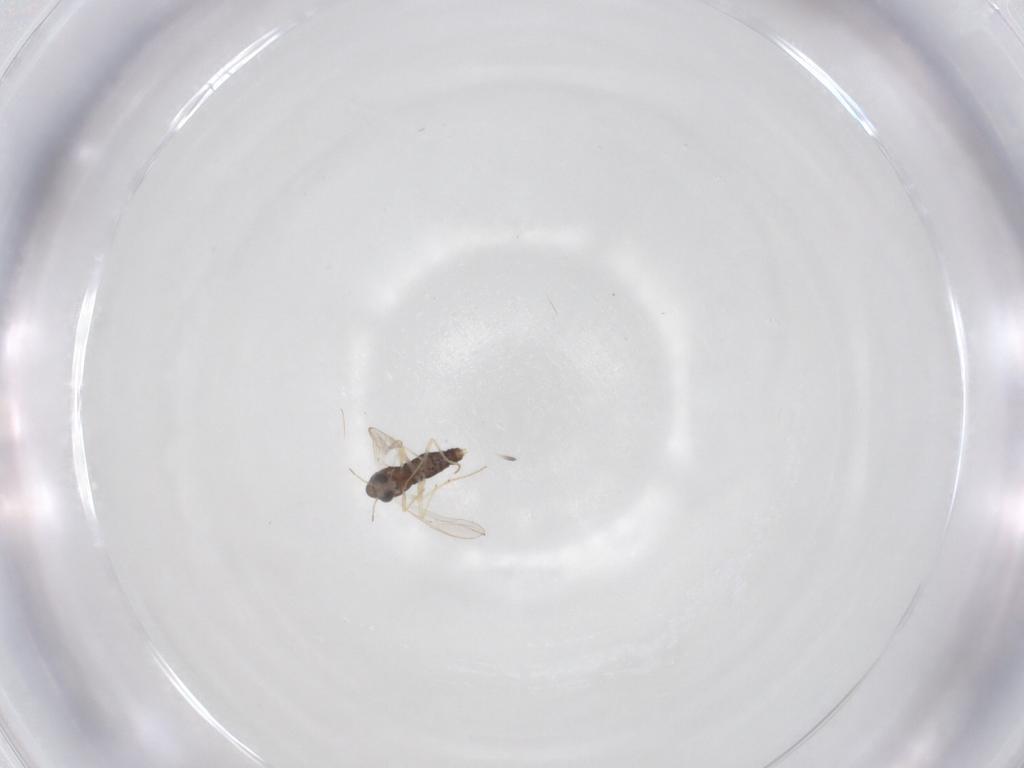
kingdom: Animalia
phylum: Arthropoda
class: Insecta
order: Diptera
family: Chironomidae
